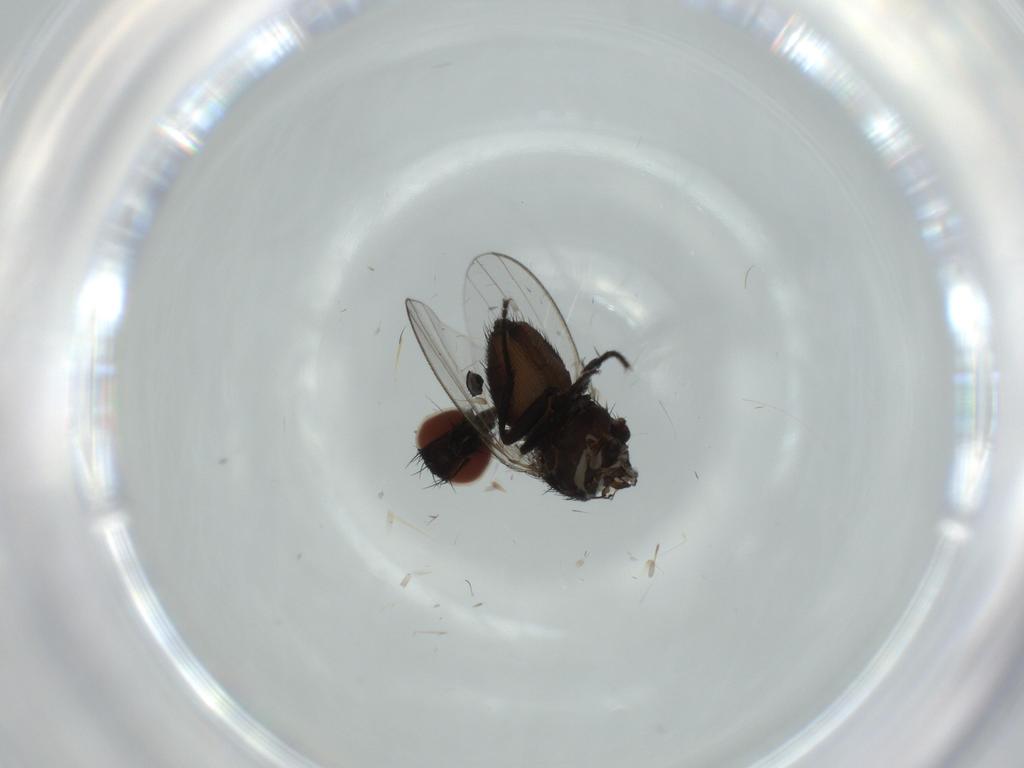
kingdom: Animalia
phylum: Arthropoda
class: Insecta
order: Diptera
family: Milichiidae
